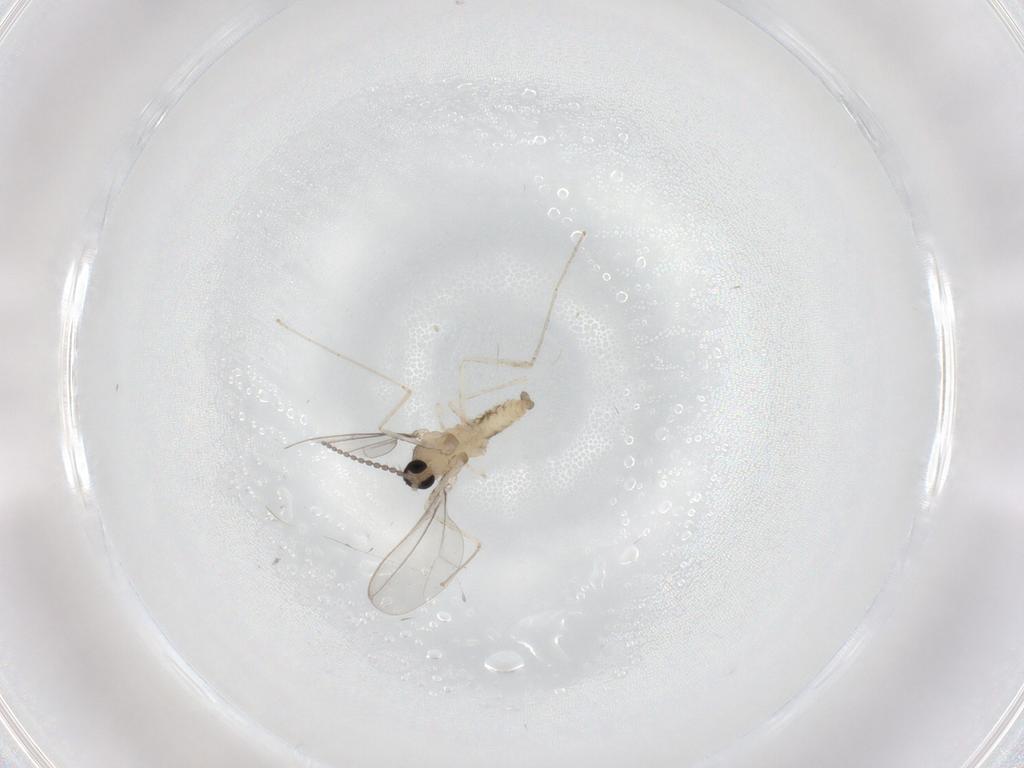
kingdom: Animalia
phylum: Arthropoda
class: Insecta
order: Diptera
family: Cecidomyiidae
